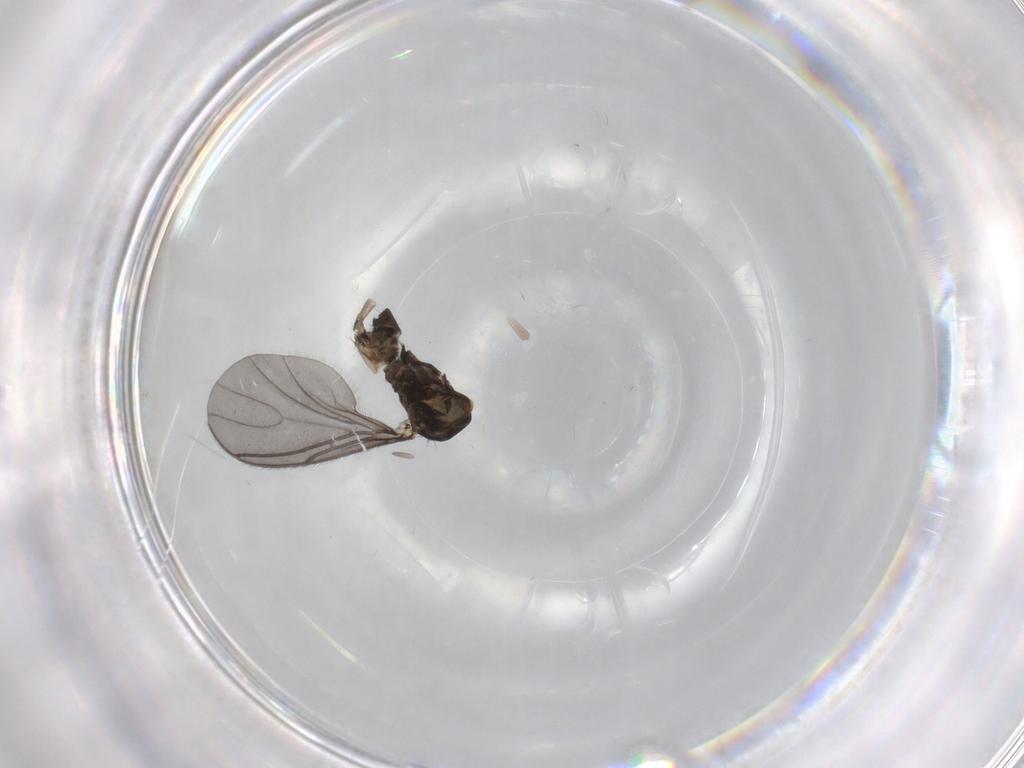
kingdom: Animalia
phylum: Arthropoda
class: Insecta
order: Diptera
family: Sciaridae
